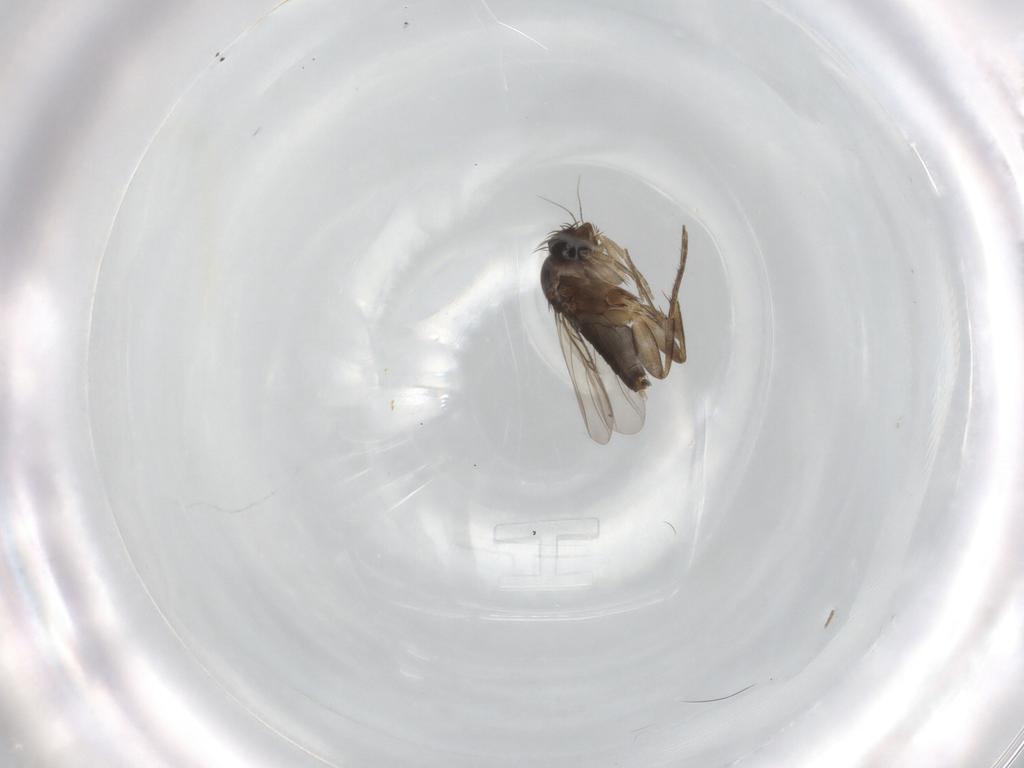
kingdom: Animalia
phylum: Arthropoda
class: Insecta
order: Diptera
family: Phoridae
